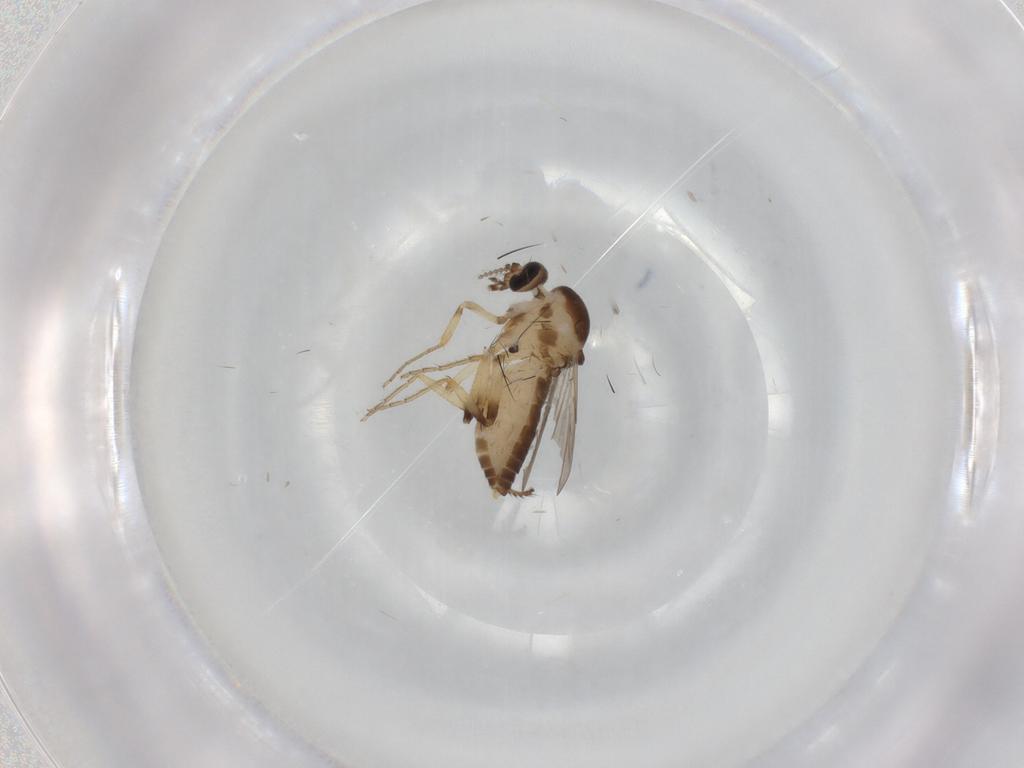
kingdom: Animalia
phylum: Arthropoda
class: Insecta
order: Diptera
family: Ceratopogonidae
